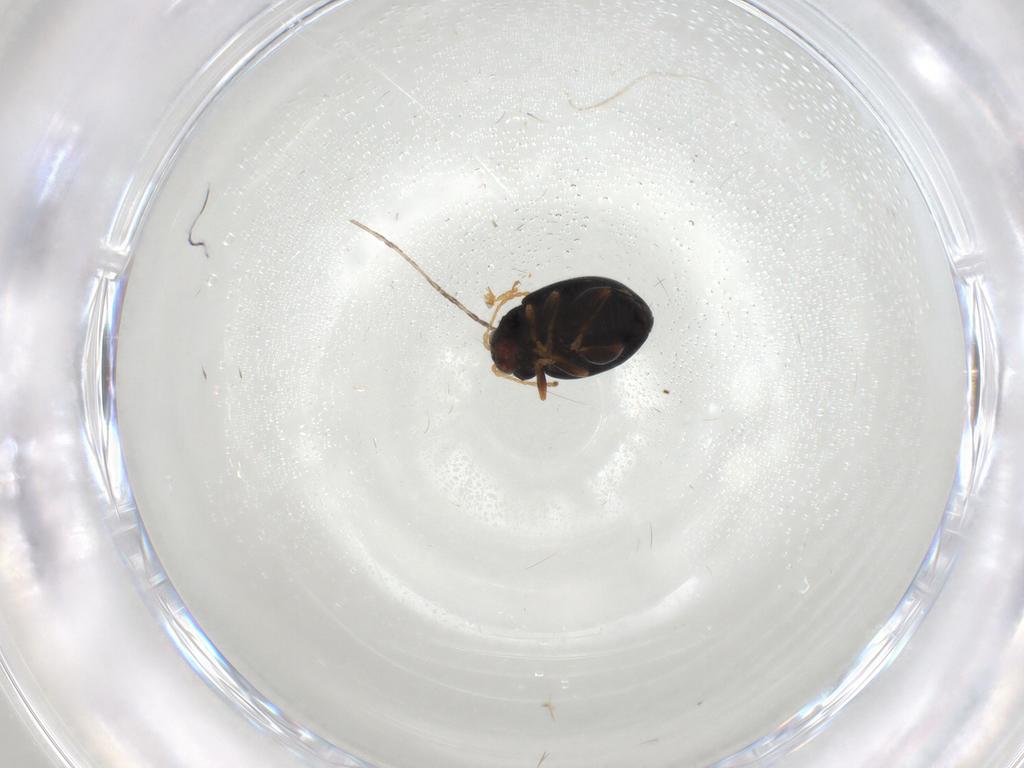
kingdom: Animalia
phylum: Arthropoda
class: Insecta
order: Coleoptera
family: Chrysomelidae
